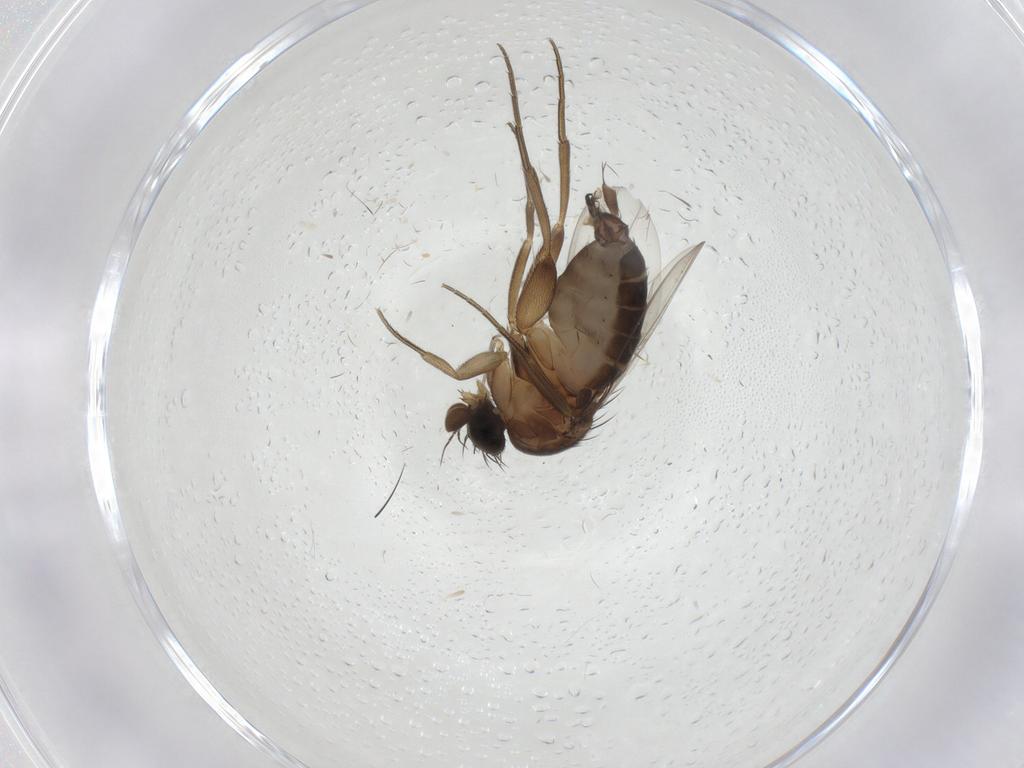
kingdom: Animalia
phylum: Arthropoda
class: Insecta
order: Diptera
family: Phoridae
